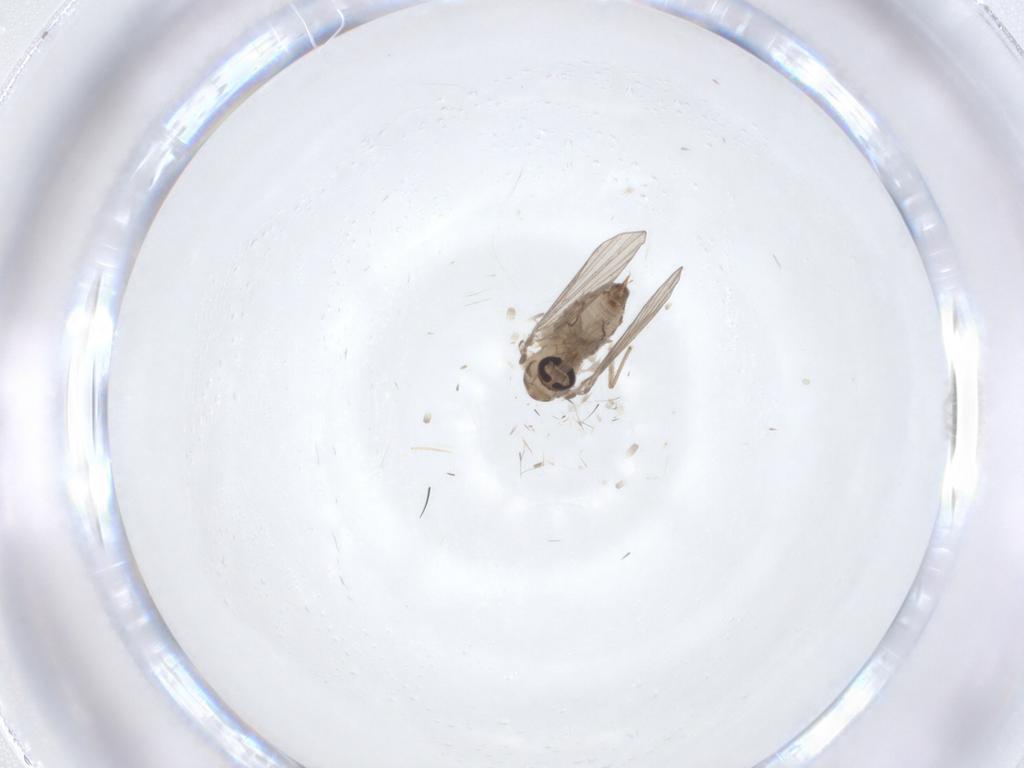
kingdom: Animalia
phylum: Arthropoda
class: Insecta
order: Diptera
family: Psychodidae
